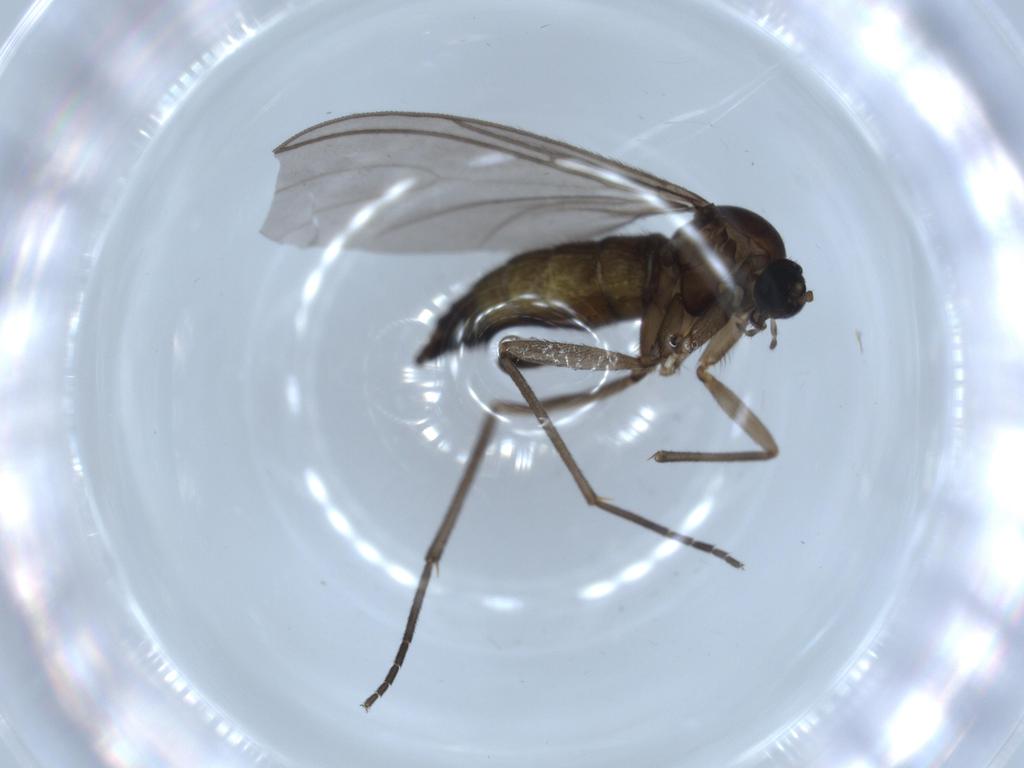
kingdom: Animalia
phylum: Arthropoda
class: Insecta
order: Diptera
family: Sciaridae
